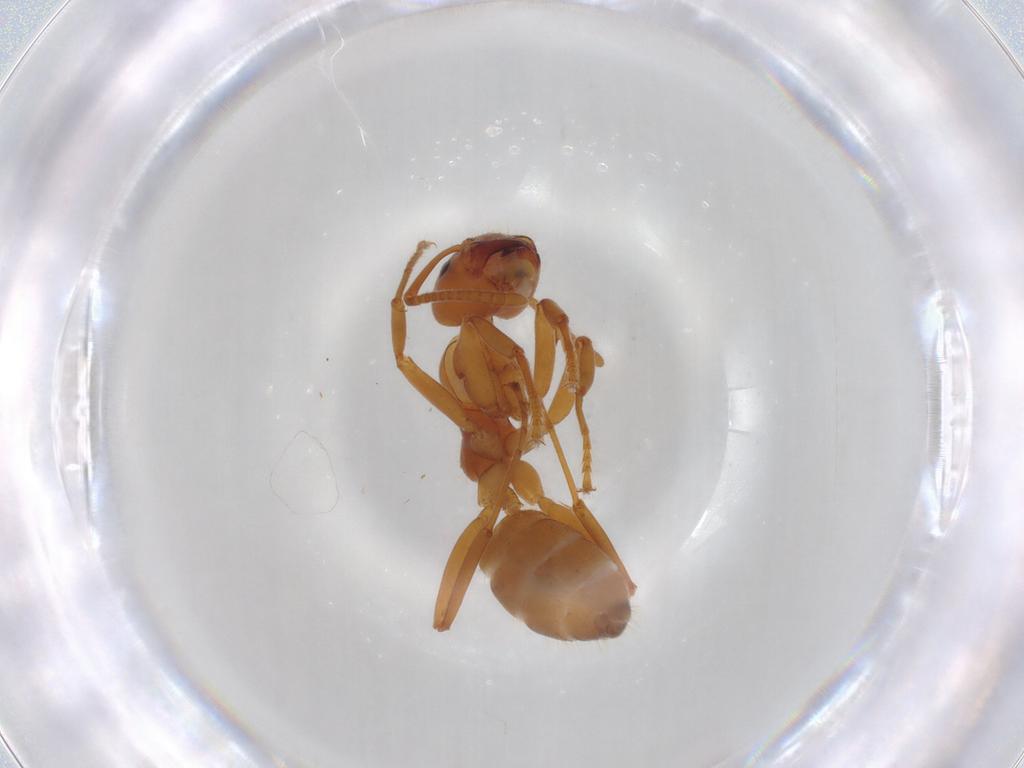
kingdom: Animalia
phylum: Arthropoda
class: Insecta
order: Hymenoptera
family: Formicidae
